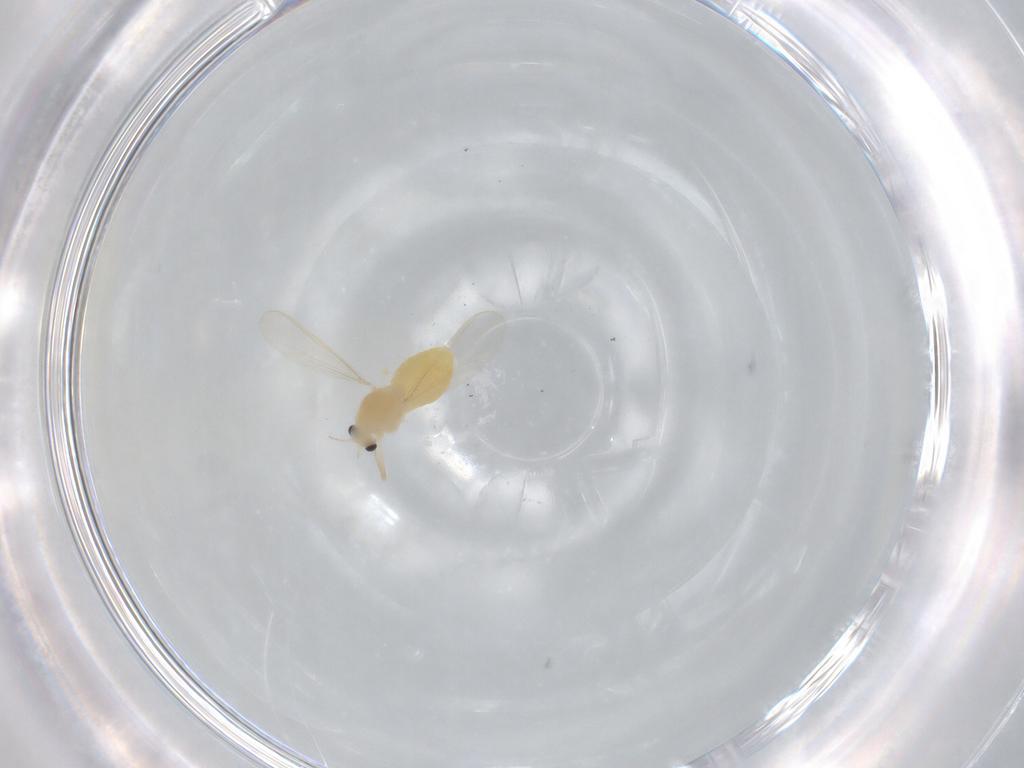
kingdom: Animalia
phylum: Arthropoda
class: Insecta
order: Diptera
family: Chironomidae
